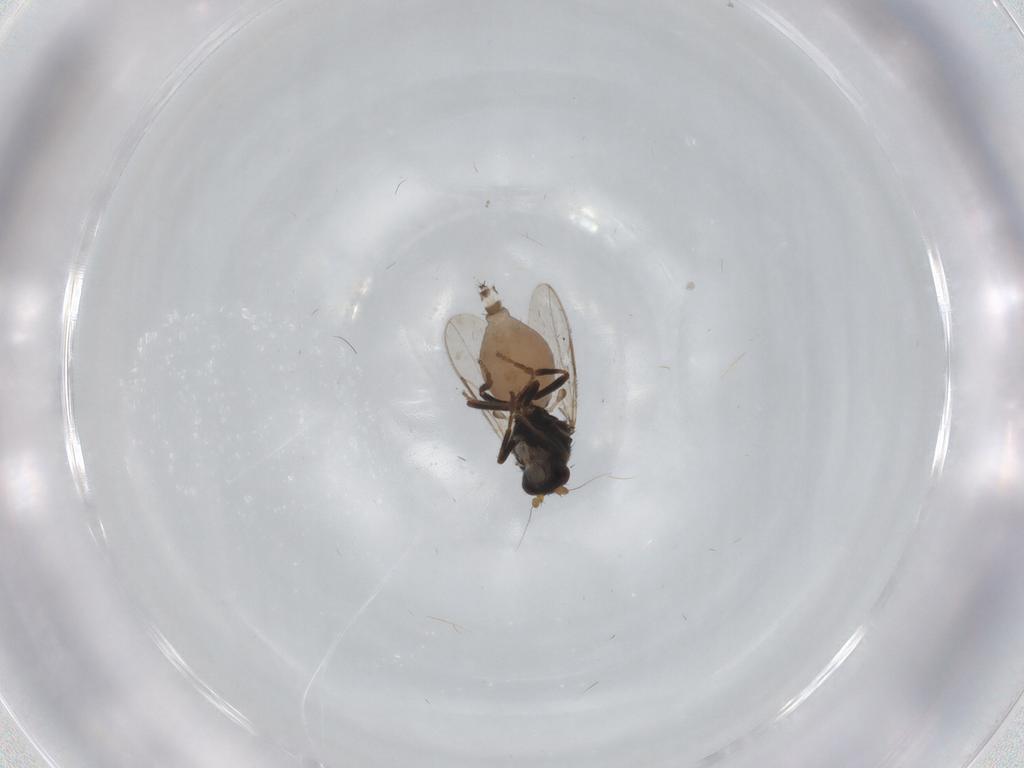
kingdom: Animalia
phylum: Arthropoda
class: Insecta
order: Diptera
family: Sphaeroceridae
